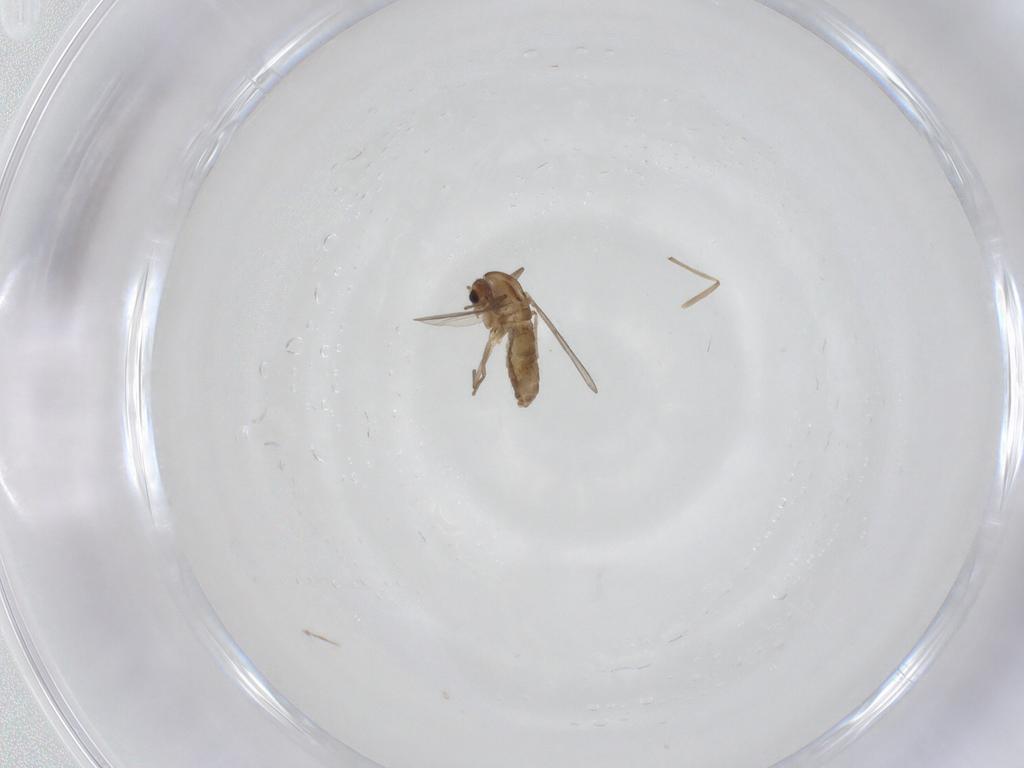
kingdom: Animalia
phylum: Arthropoda
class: Insecta
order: Diptera
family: Chironomidae
